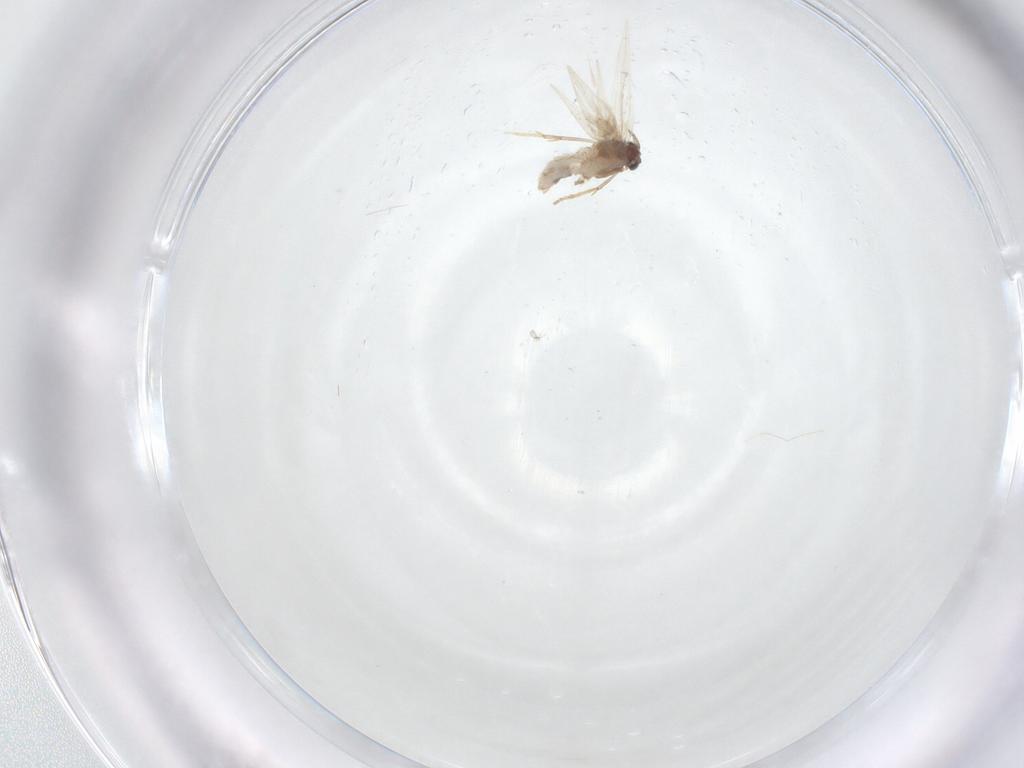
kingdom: Animalia
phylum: Arthropoda
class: Insecta
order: Lepidoptera
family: Nepticulidae
